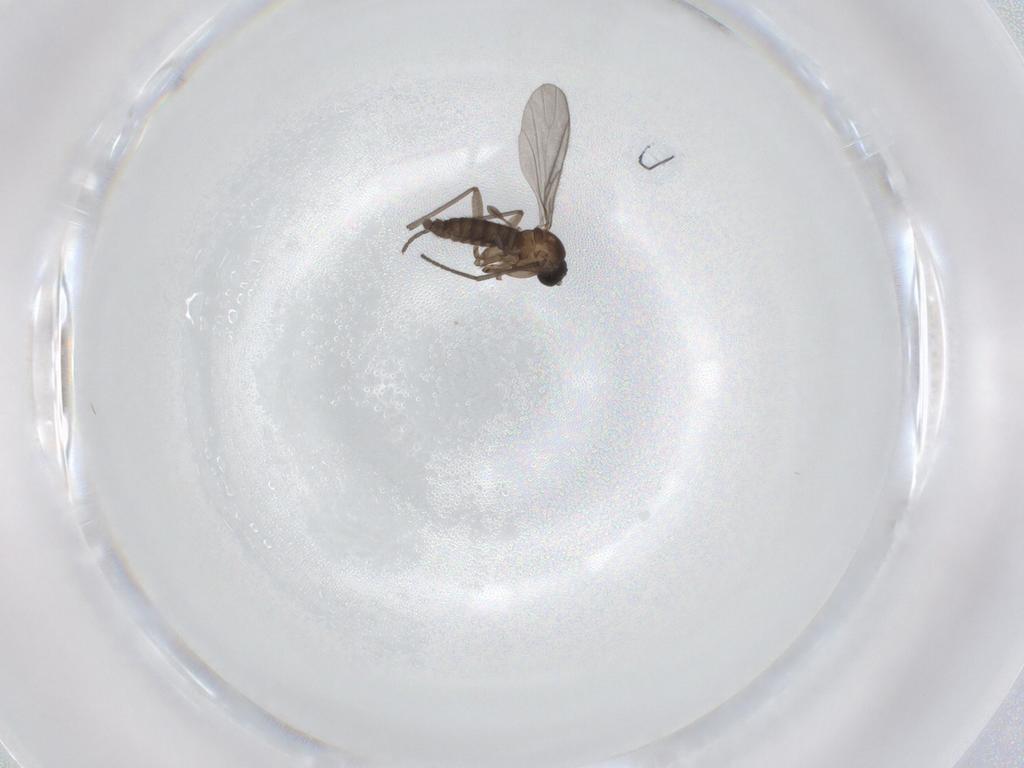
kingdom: Animalia
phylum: Arthropoda
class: Insecta
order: Diptera
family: Sciaridae
